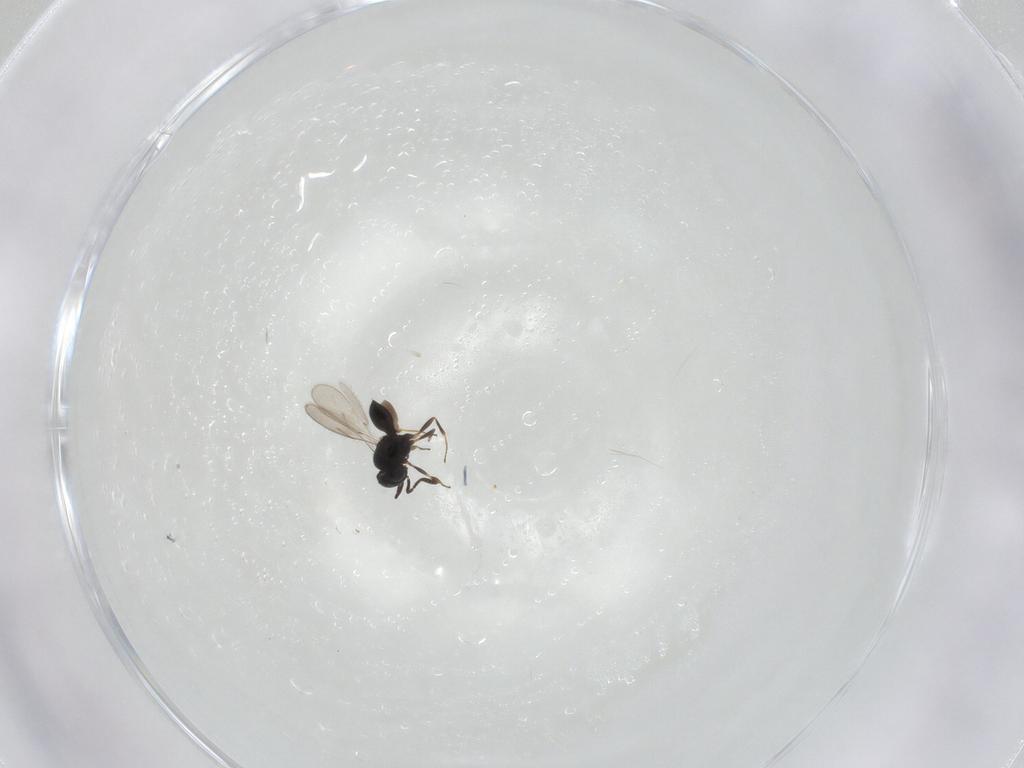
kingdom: Animalia
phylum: Arthropoda
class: Insecta
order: Hymenoptera
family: Scelionidae
